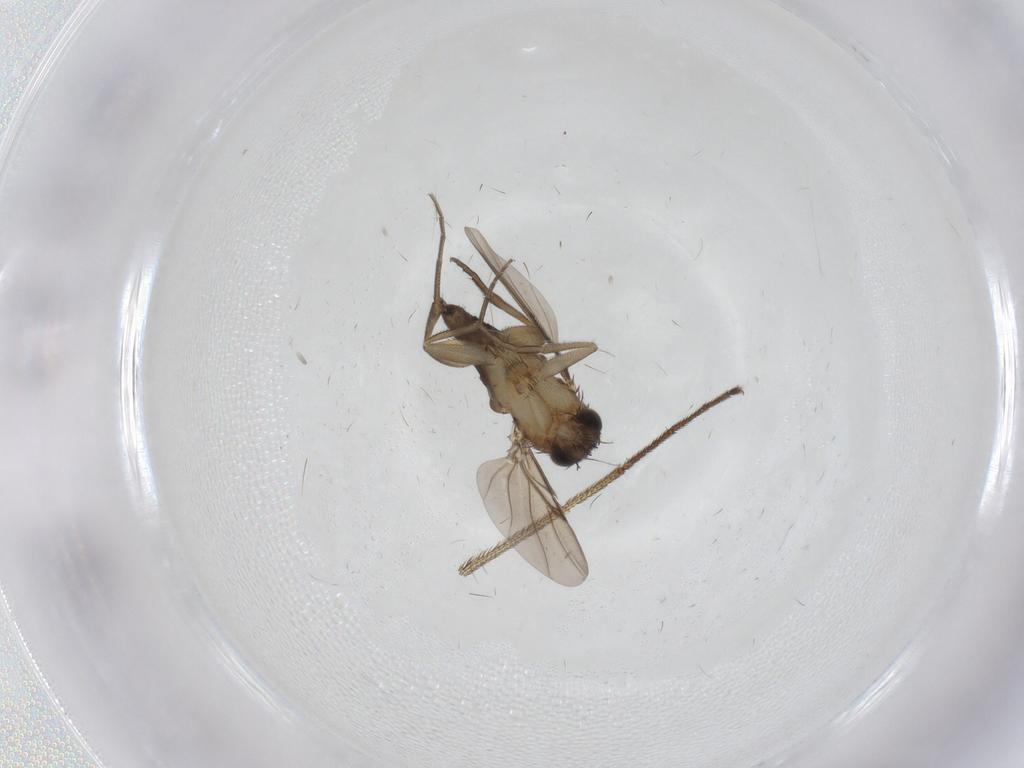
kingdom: Animalia
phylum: Arthropoda
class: Insecta
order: Diptera
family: Phoridae
